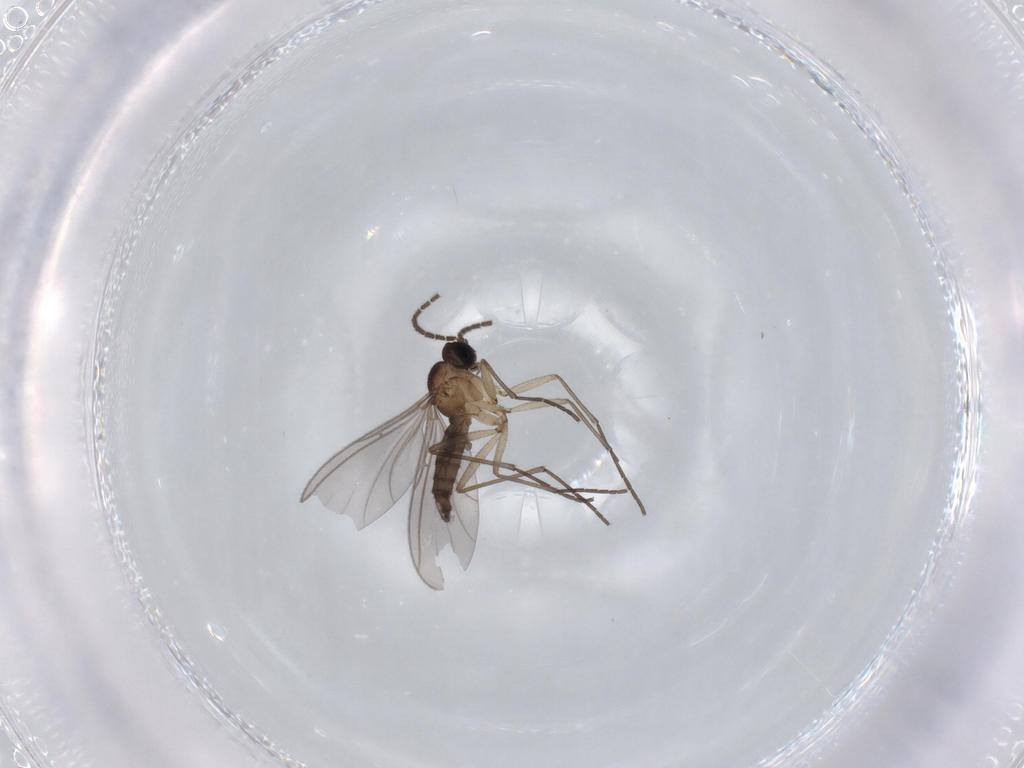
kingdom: Animalia
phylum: Arthropoda
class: Insecta
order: Diptera
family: Sciaridae
